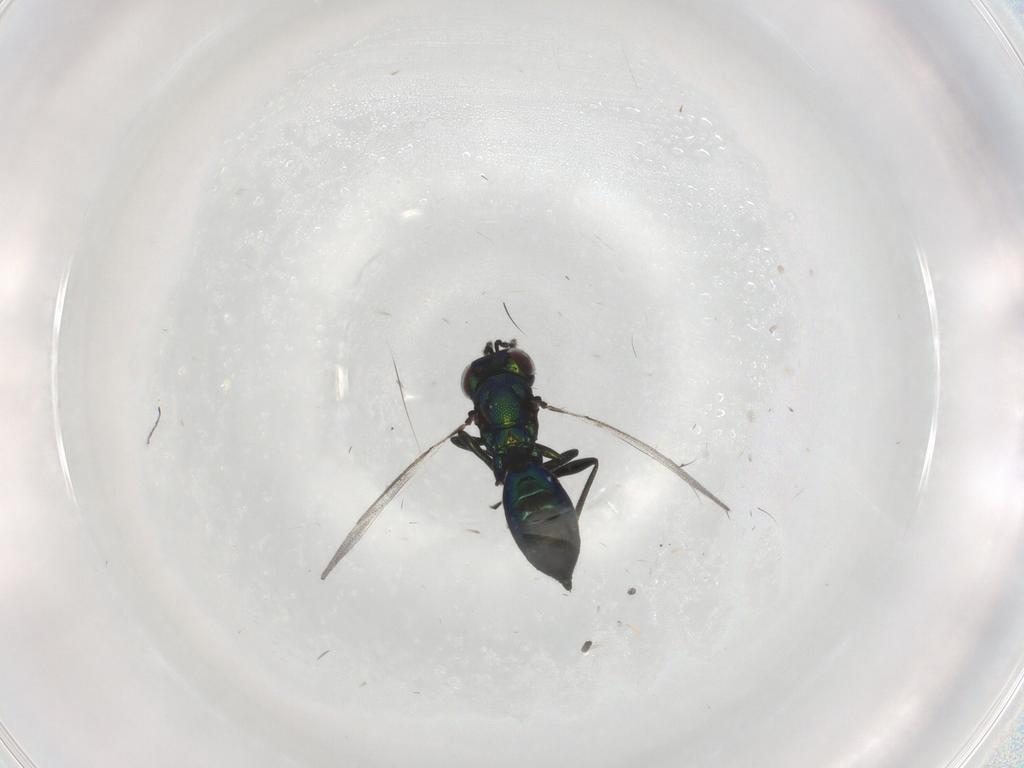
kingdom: Animalia
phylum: Arthropoda
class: Insecta
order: Hymenoptera
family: Eulophidae
